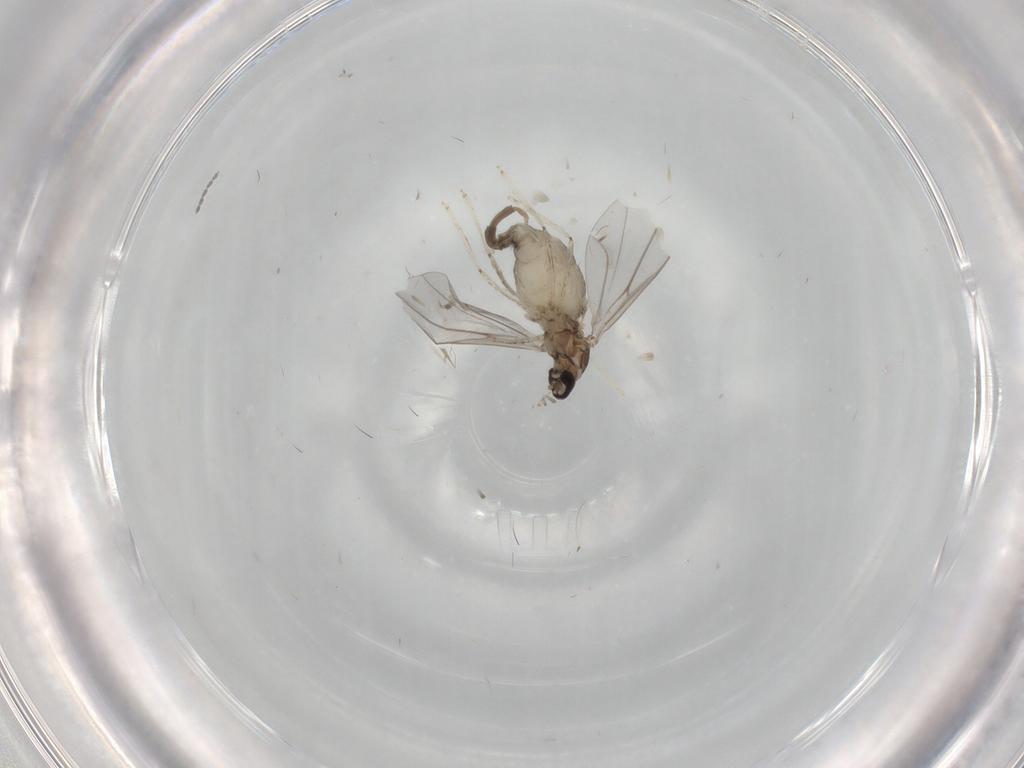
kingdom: Animalia
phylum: Arthropoda
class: Insecta
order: Diptera
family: Cecidomyiidae
